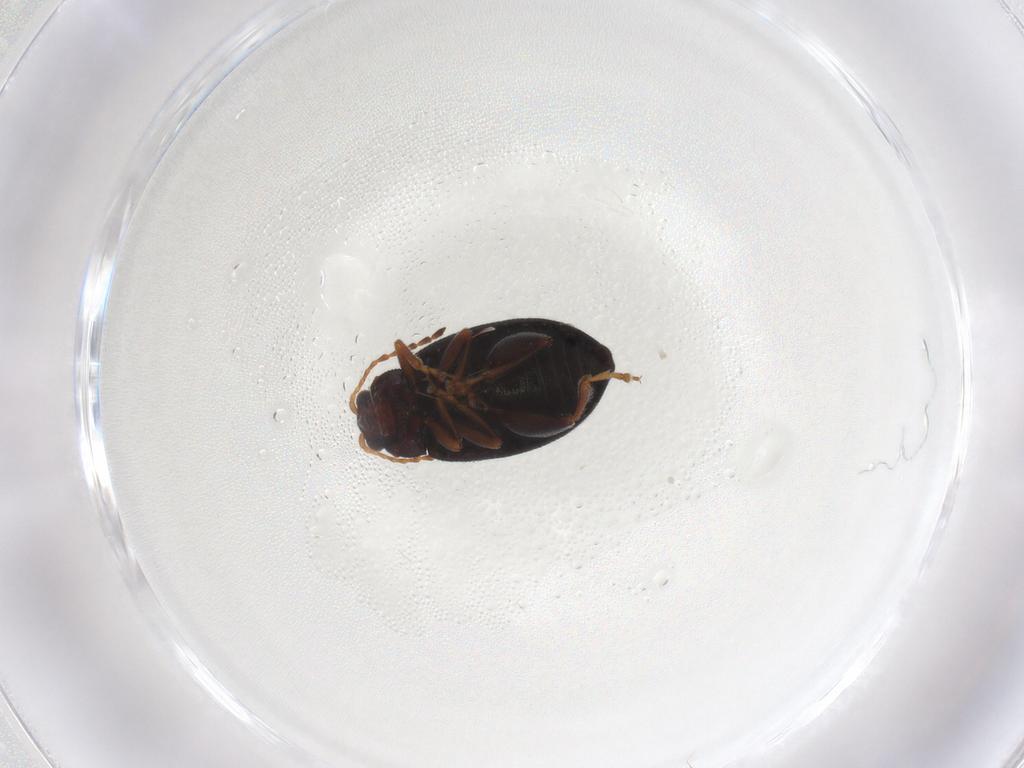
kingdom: Animalia
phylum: Arthropoda
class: Insecta
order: Coleoptera
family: Chrysomelidae
